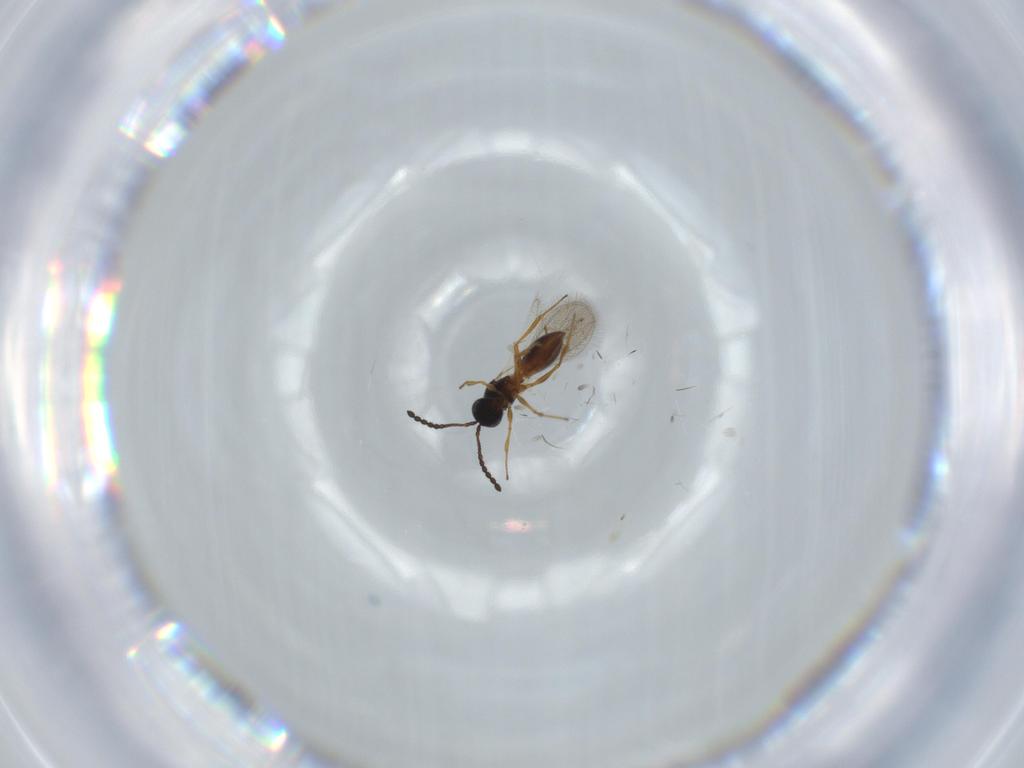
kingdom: Animalia
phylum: Arthropoda
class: Insecta
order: Hymenoptera
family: Figitidae
